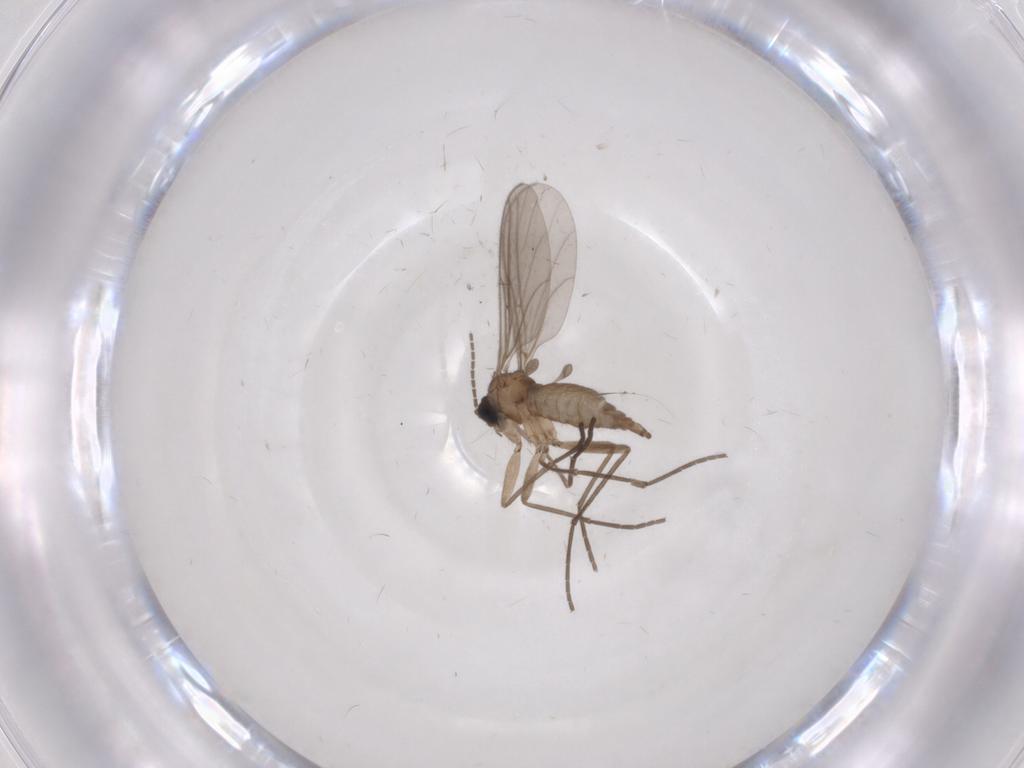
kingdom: Animalia
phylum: Arthropoda
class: Insecta
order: Diptera
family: Sciaridae
